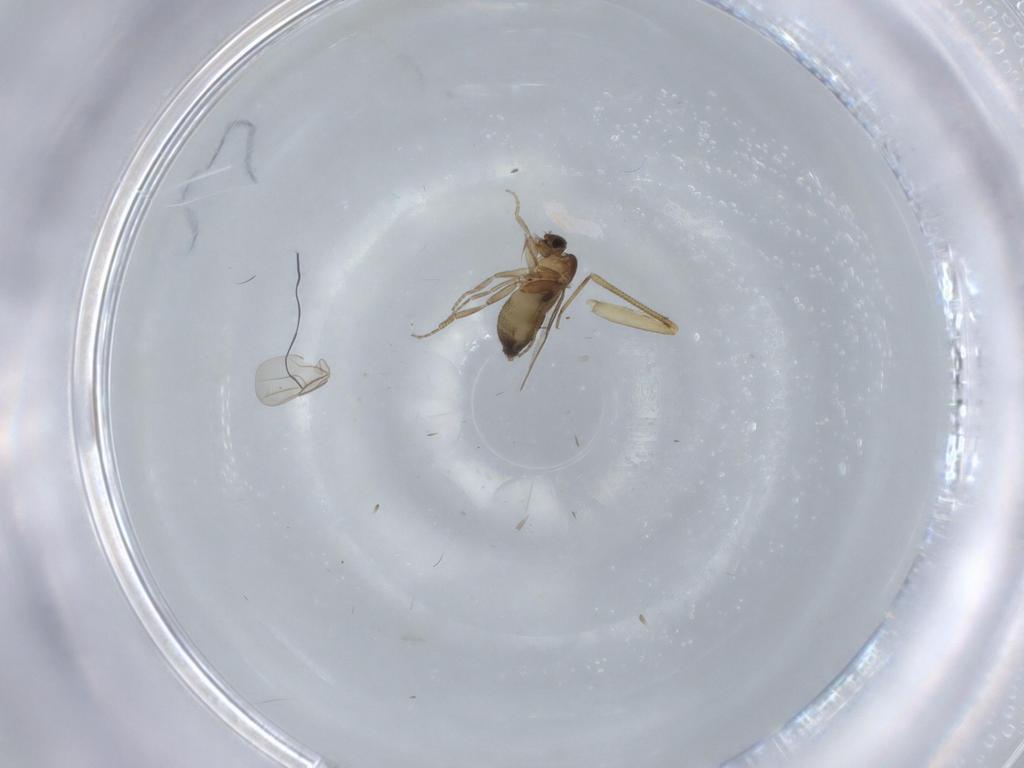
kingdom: Animalia
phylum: Arthropoda
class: Insecta
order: Diptera
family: Phoridae
